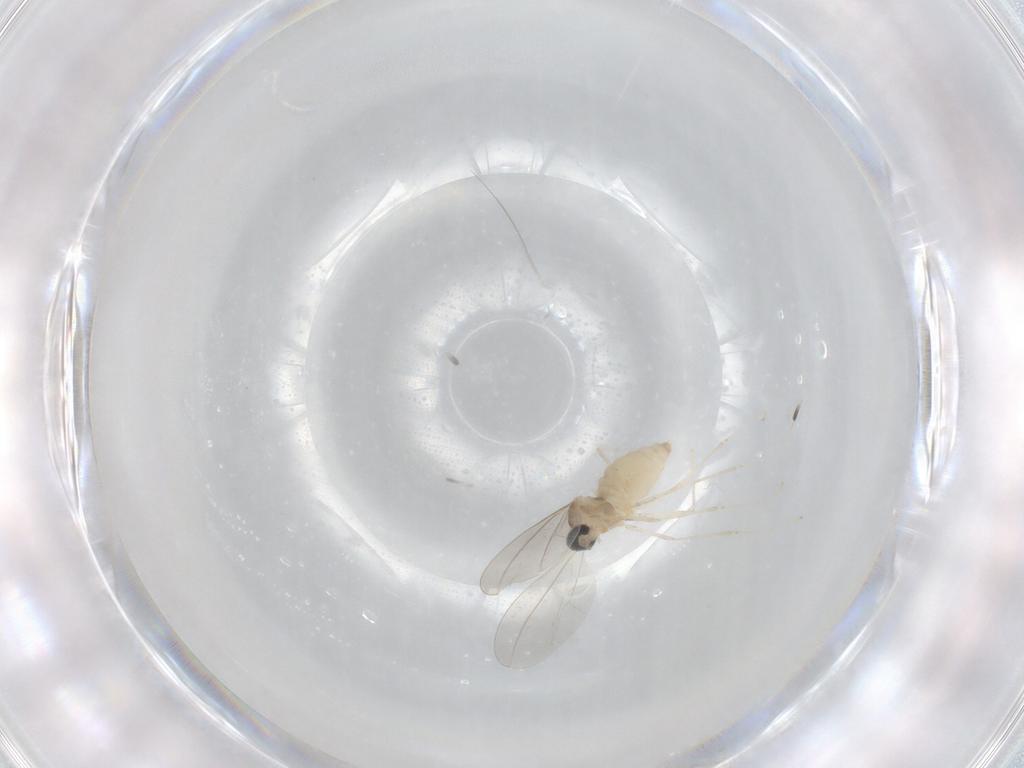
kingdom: Animalia
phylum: Arthropoda
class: Insecta
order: Diptera
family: Cecidomyiidae
